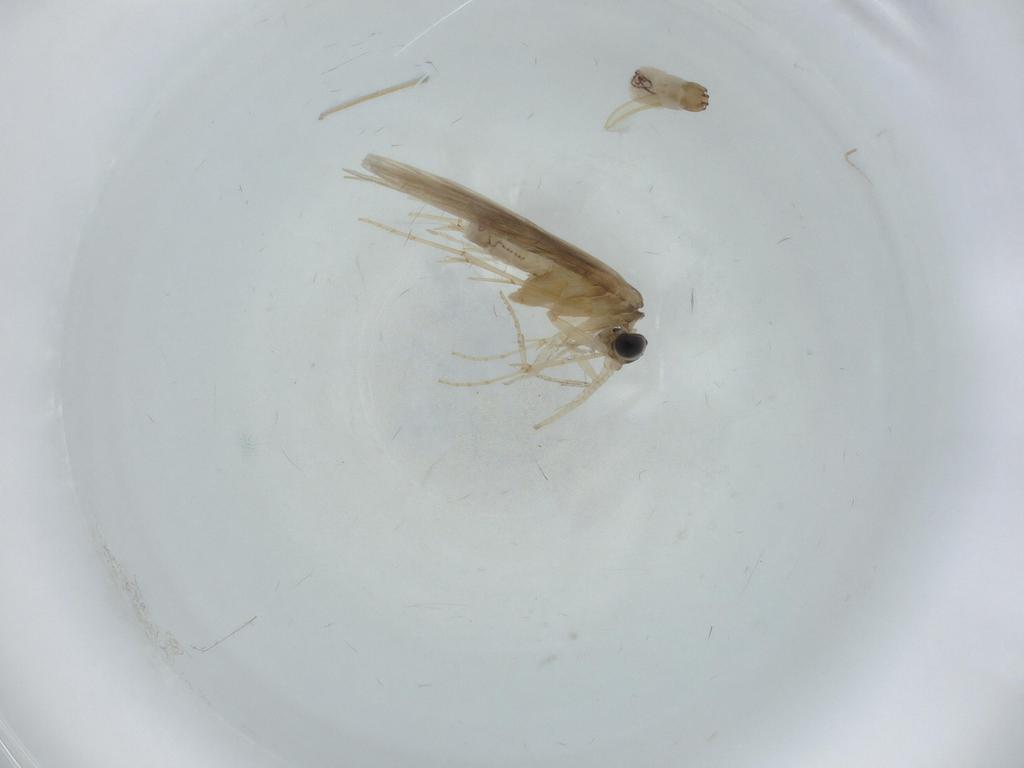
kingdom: Animalia
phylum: Arthropoda
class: Insecta
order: Trichoptera
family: Hydroptilidae
